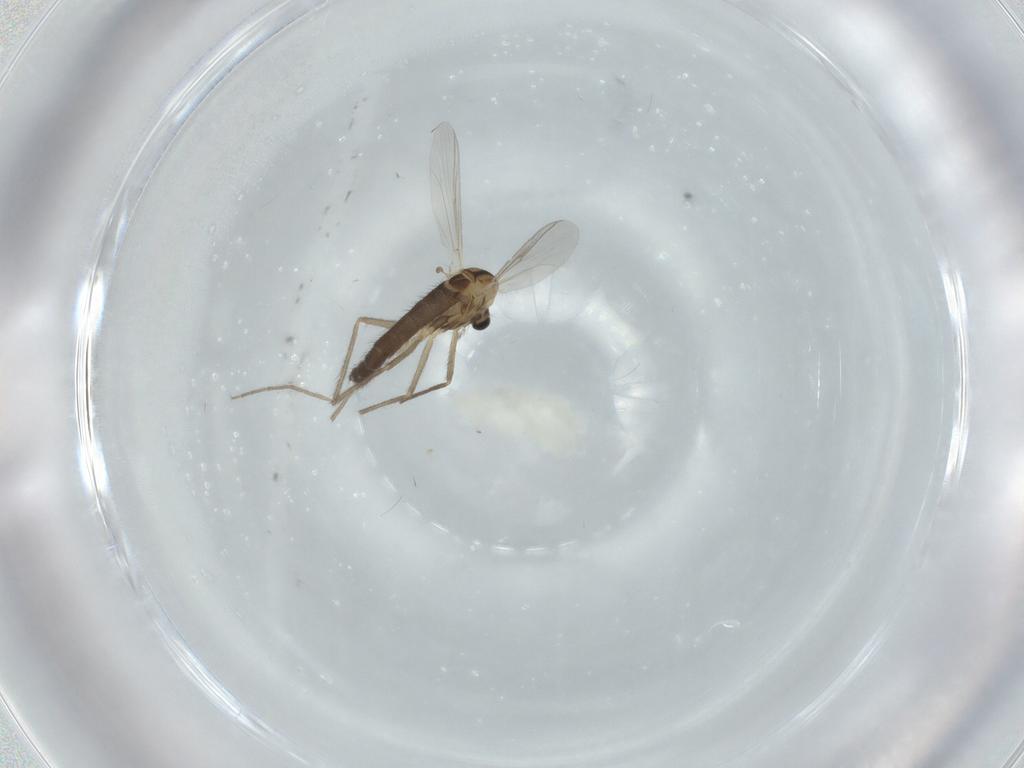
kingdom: Animalia
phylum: Arthropoda
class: Insecta
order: Diptera
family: Chironomidae
